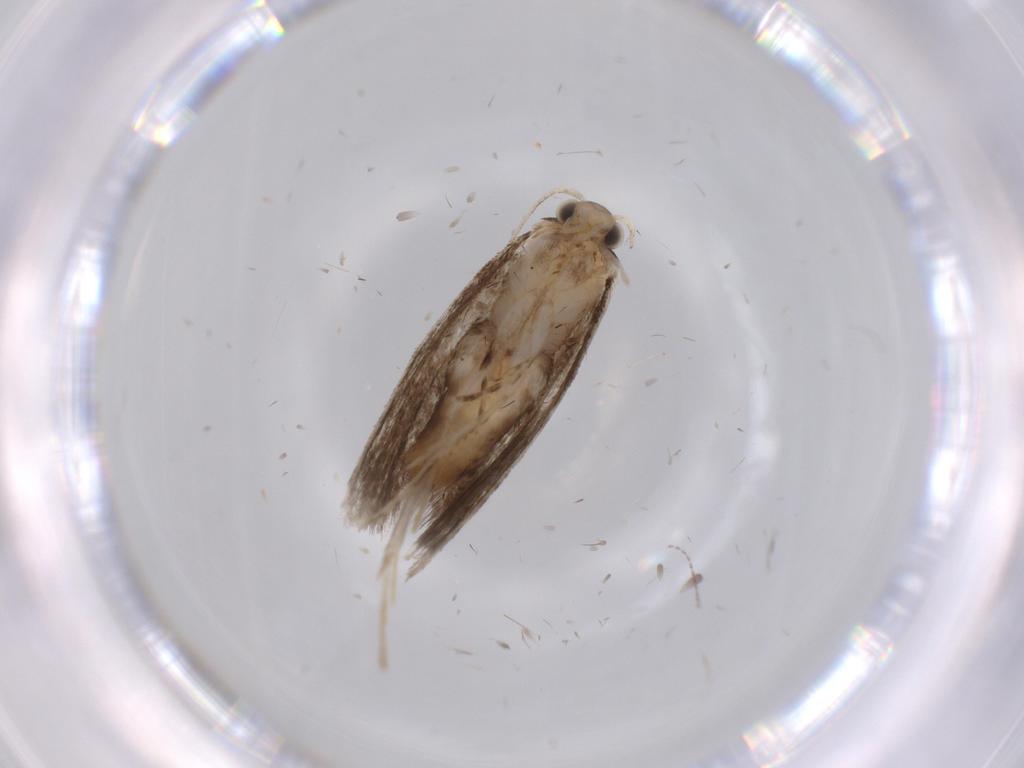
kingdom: Animalia
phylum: Arthropoda
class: Insecta
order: Lepidoptera
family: Tineidae
